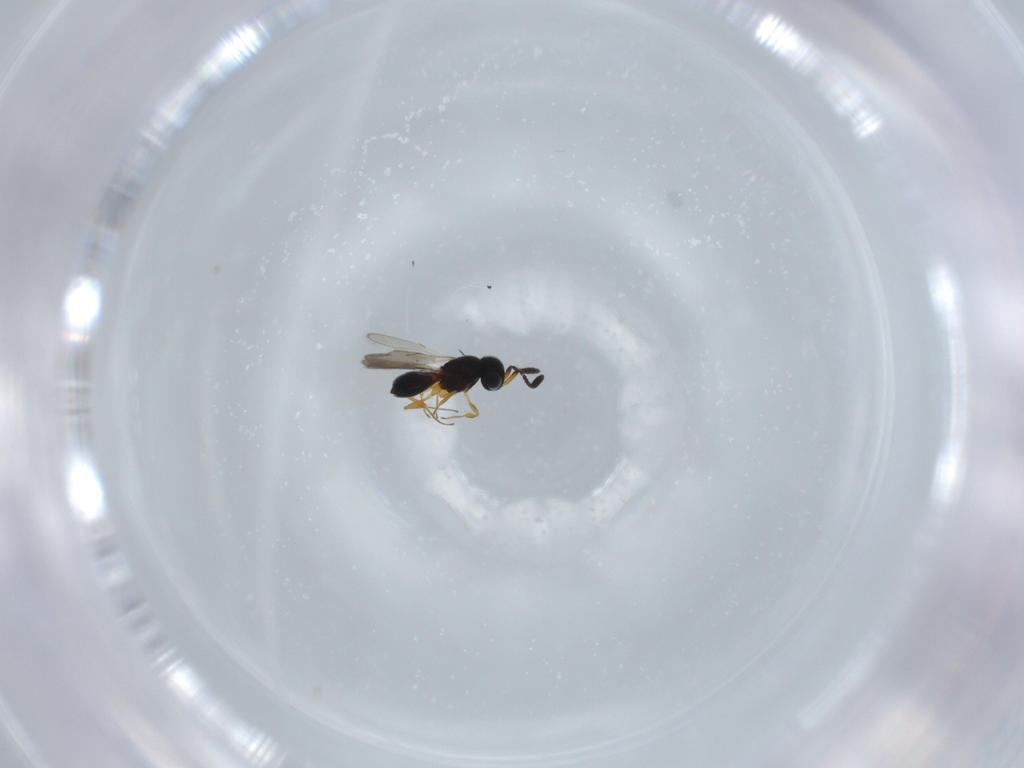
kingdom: Animalia
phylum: Arthropoda
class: Insecta
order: Hymenoptera
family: Scelionidae
